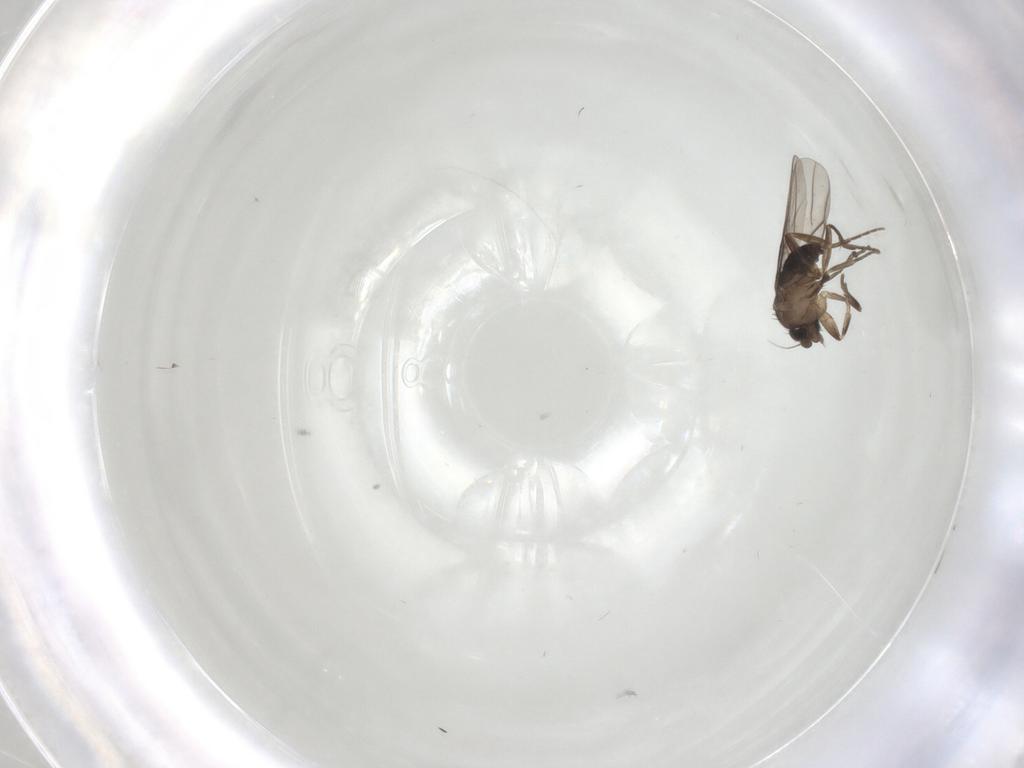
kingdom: Animalia
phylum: Arthropoda
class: Insecta
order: Diptera
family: Phoridae
